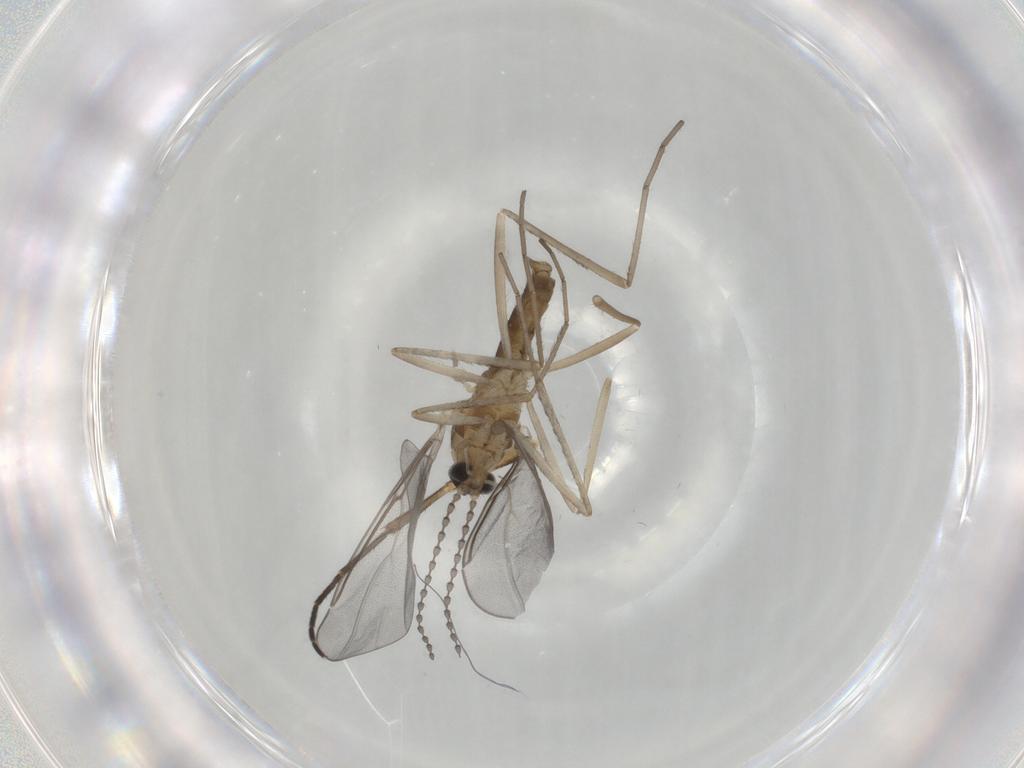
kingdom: Animalia
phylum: Arthropoda
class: Insecta
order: Diptera
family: Cecidomyiidae
